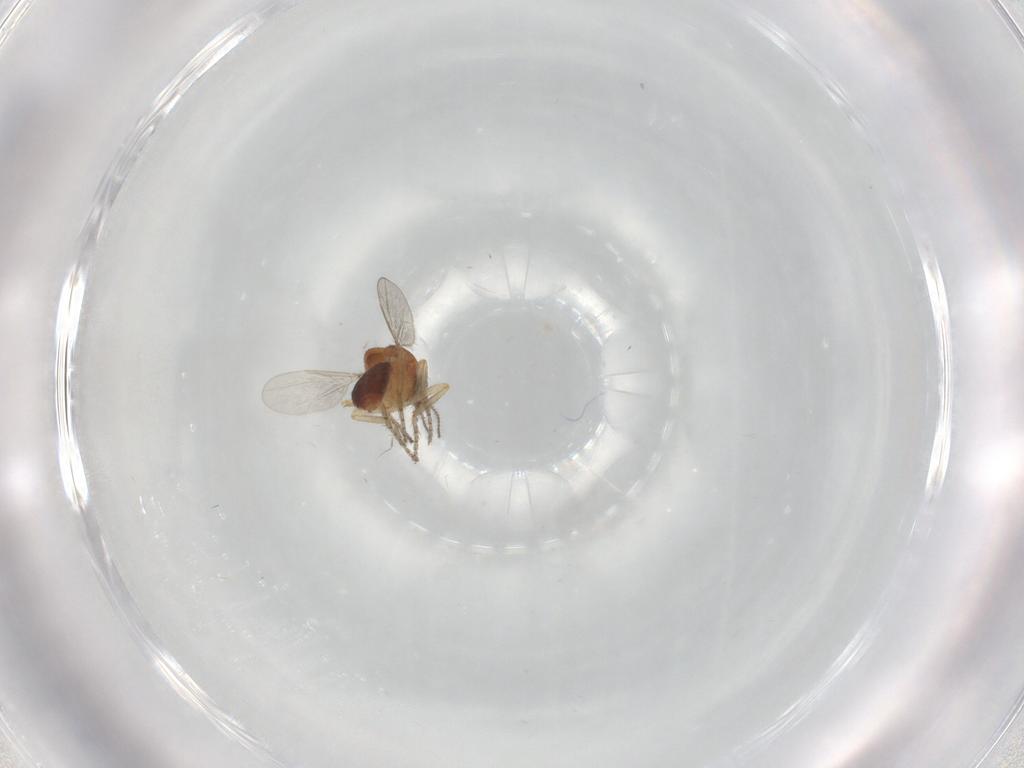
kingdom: Animalia
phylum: Arthropoda
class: Insecta
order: Diptera
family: Ceratopogonidae
